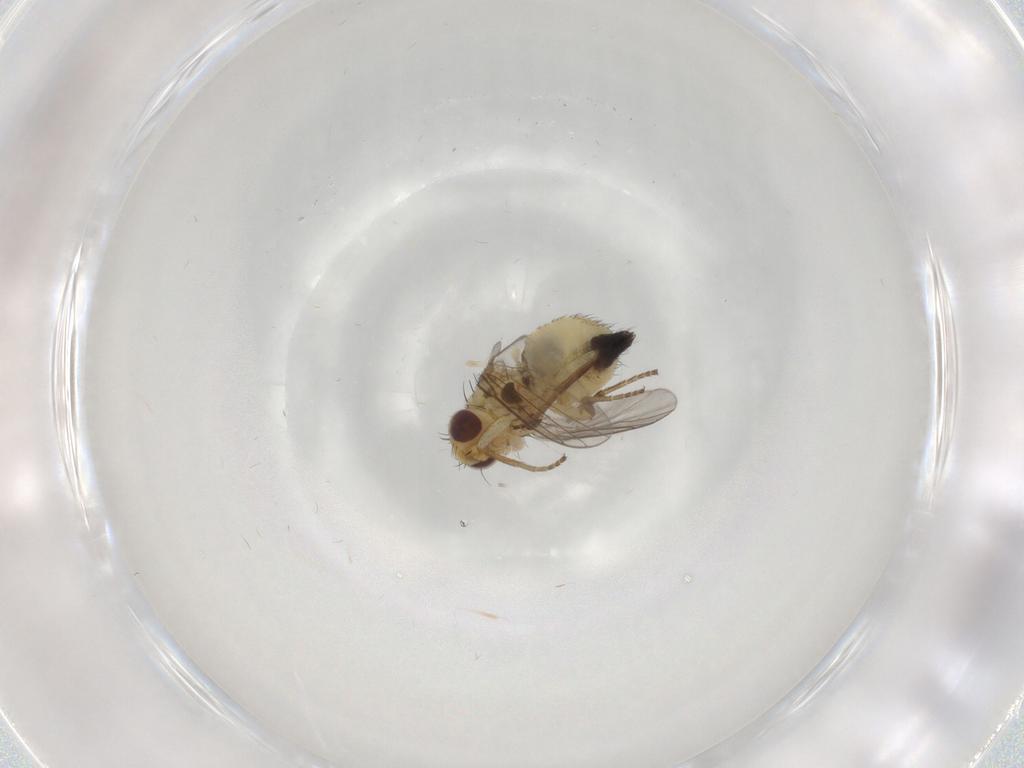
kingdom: Animalia
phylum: Arthropoda
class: Insecta
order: Diptera
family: Agromyzidae
